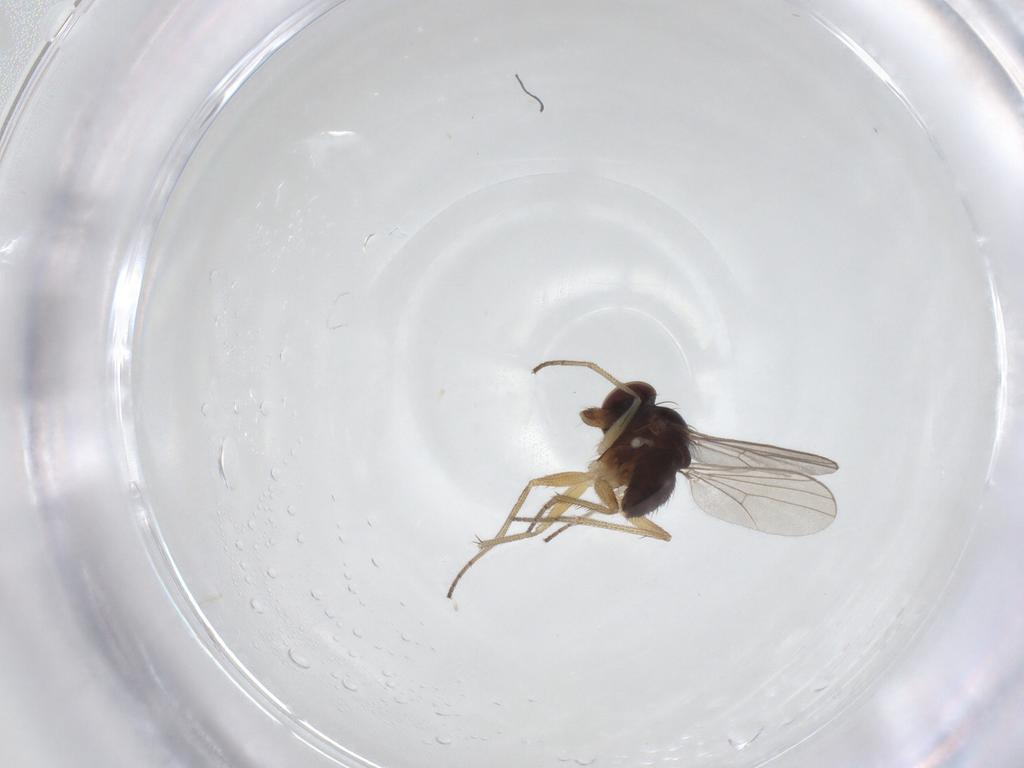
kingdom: Animalia
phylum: Arthropoda
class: Insecta
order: Diptera
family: Dolichopodidae
